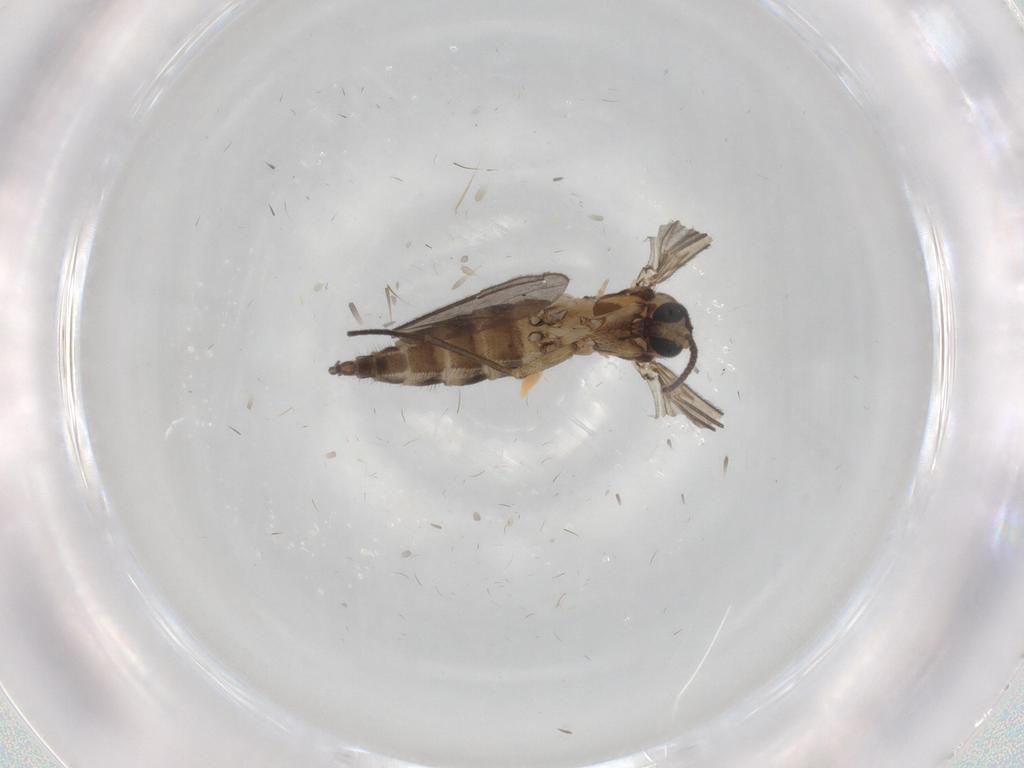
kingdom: Animalia
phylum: Arthropoda
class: Insecta
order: Diptera
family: Sciaridae
